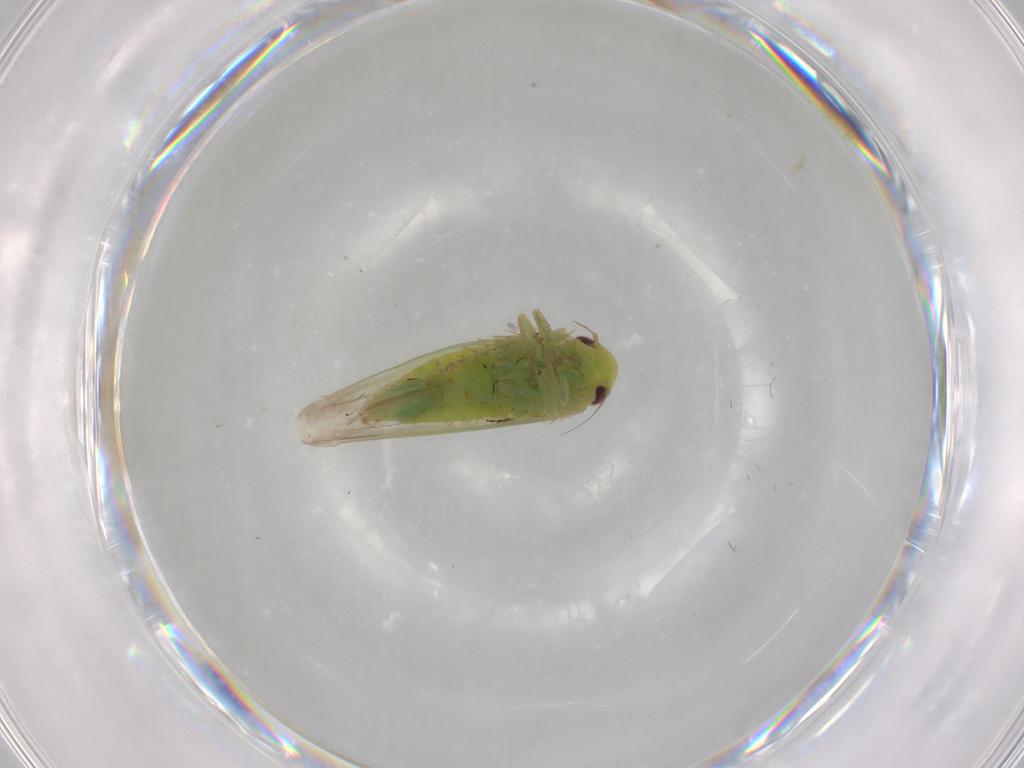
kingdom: Animalia
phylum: Arthropoda
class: Insecta
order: Hemiptera
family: Cicadellidae
